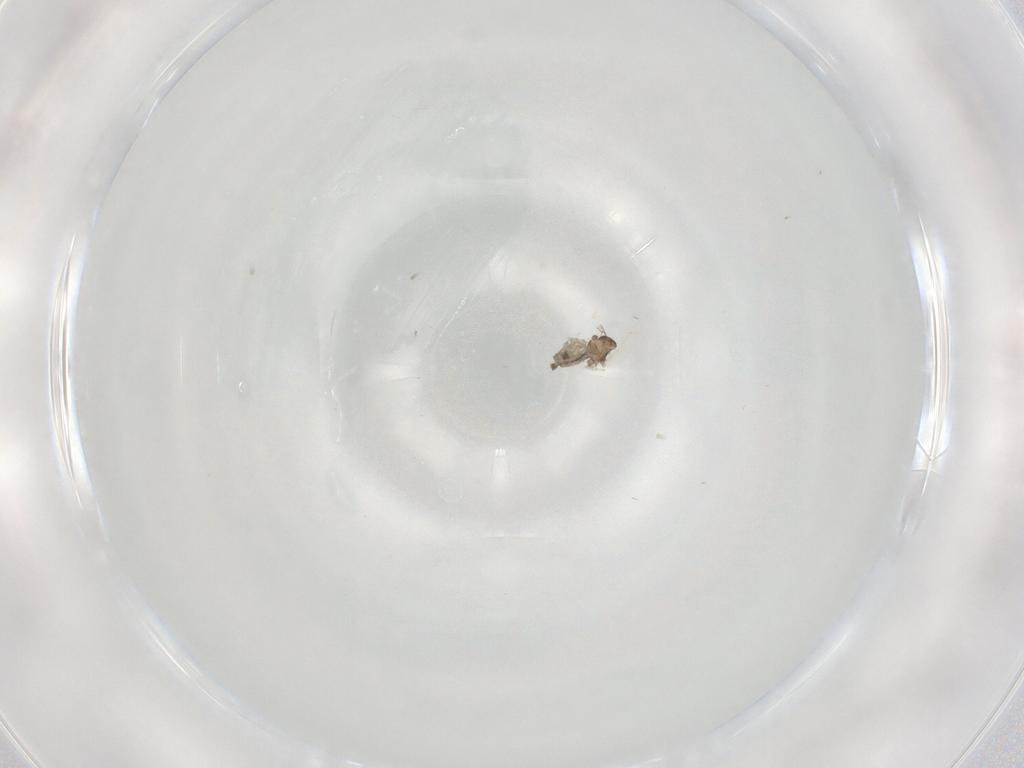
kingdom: Animalia
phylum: Arthropoda
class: Insecta
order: Diptera
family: Cecidomyiidae
